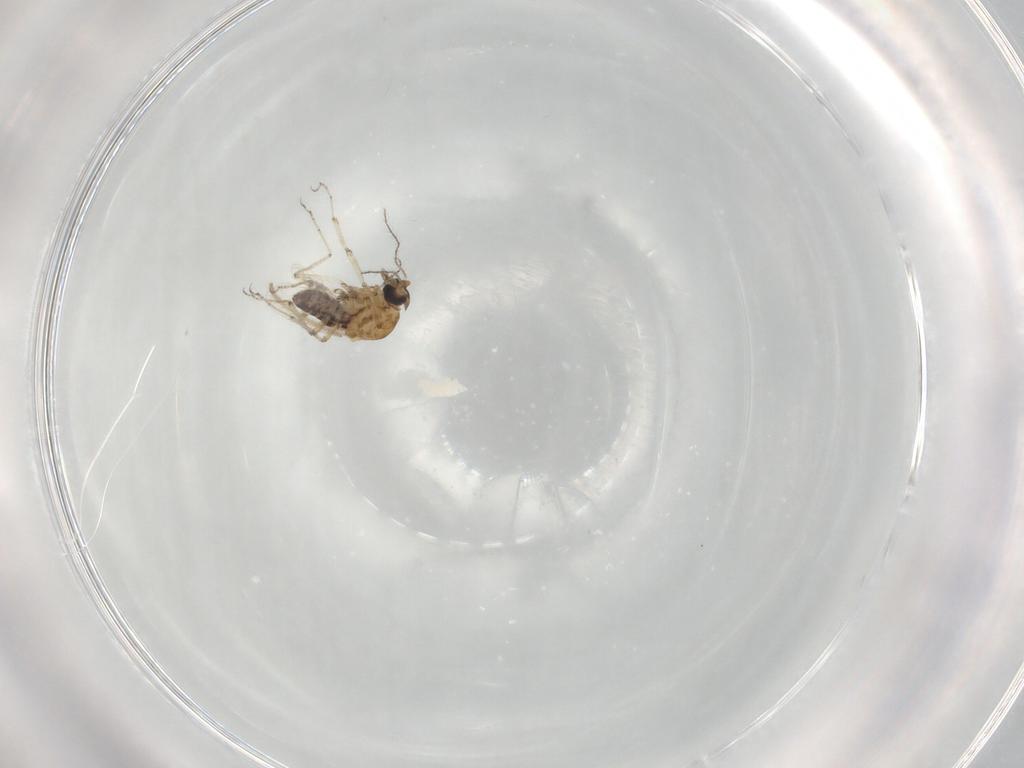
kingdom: Animalia
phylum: Arthropoda
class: Insecta
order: Diptera
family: Ceratopogonidae
